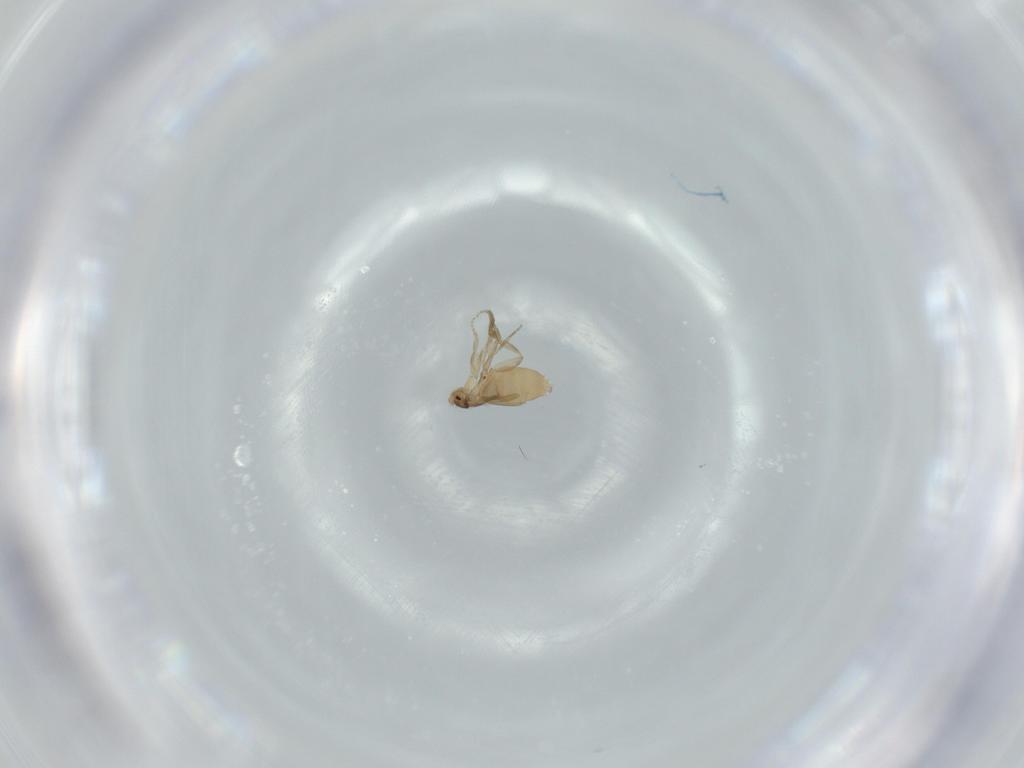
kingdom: Animalia
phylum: Arthropoda
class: Insecta
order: Diptera
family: Phoridae
